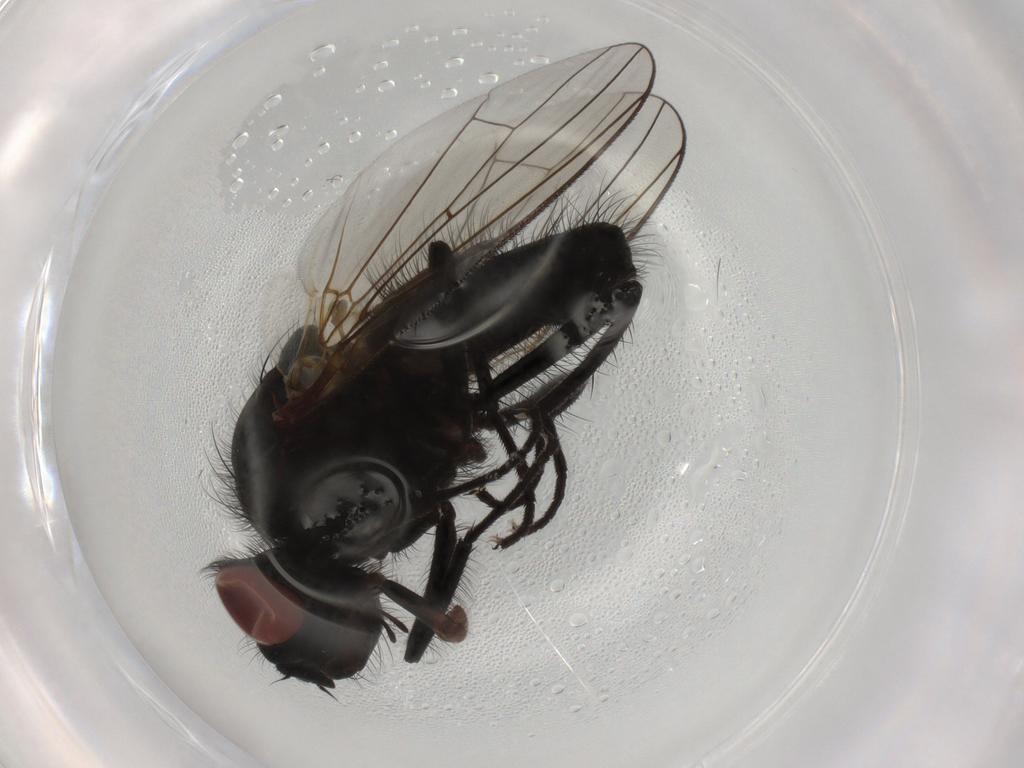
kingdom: Animalia
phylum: Arthropoda
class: Insecta
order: Diptera
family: Anthomyiidae
